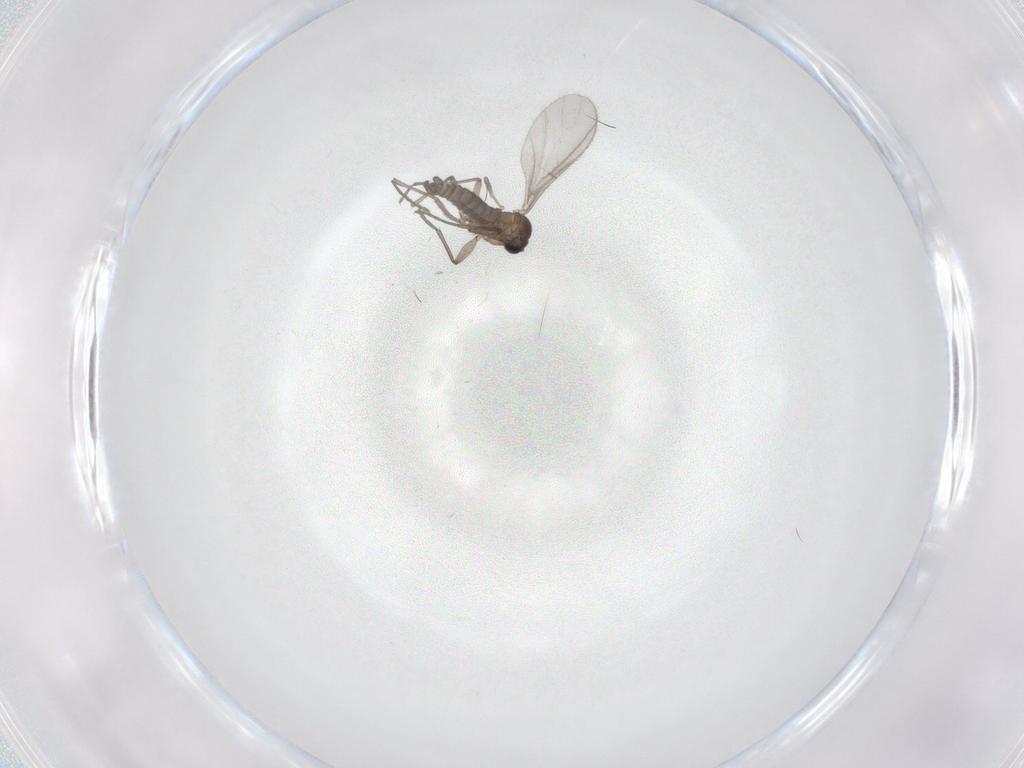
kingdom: Animalia
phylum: Arthropoda
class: Insecta
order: Diptera
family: Sciaridae
